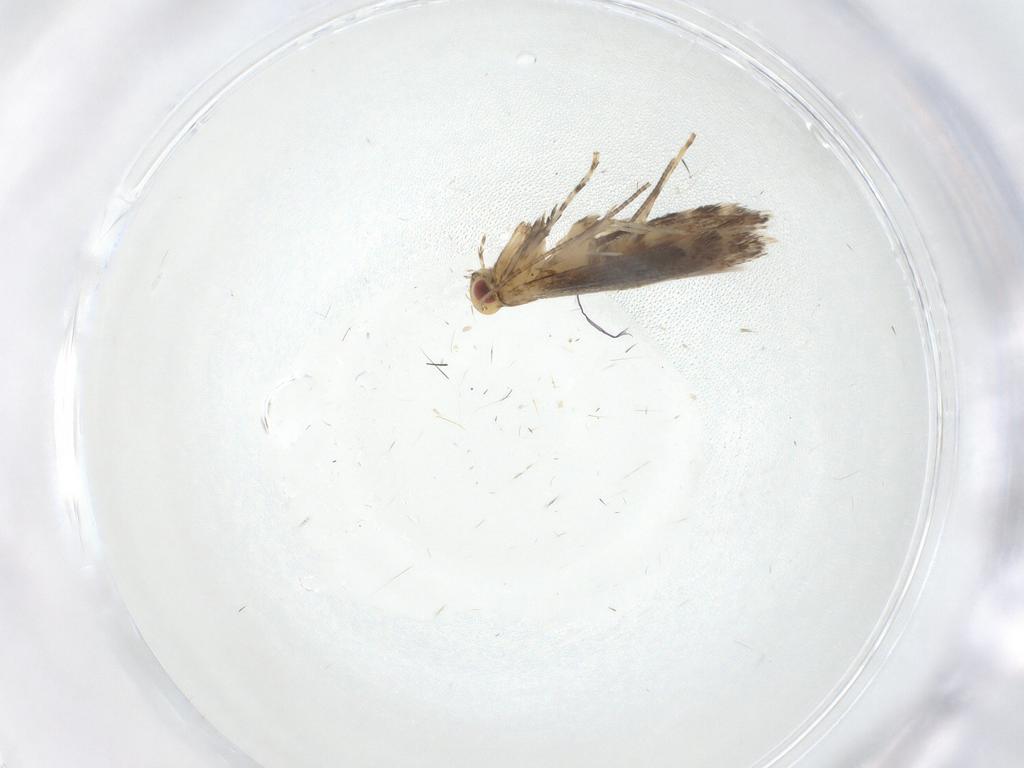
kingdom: Animalia
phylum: Arthropoda
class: Insecta
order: Lepidoptera
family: Gracillariidae
